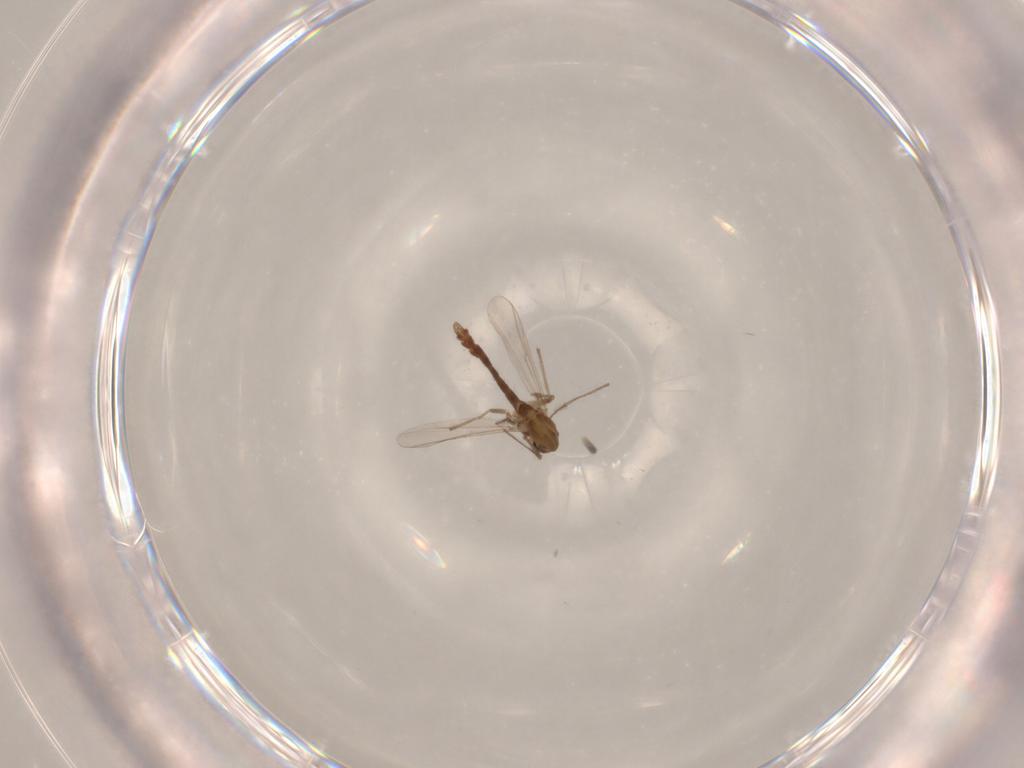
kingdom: Animalia
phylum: Arthropoda
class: Insecta
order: Diptera
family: Chironomidae
